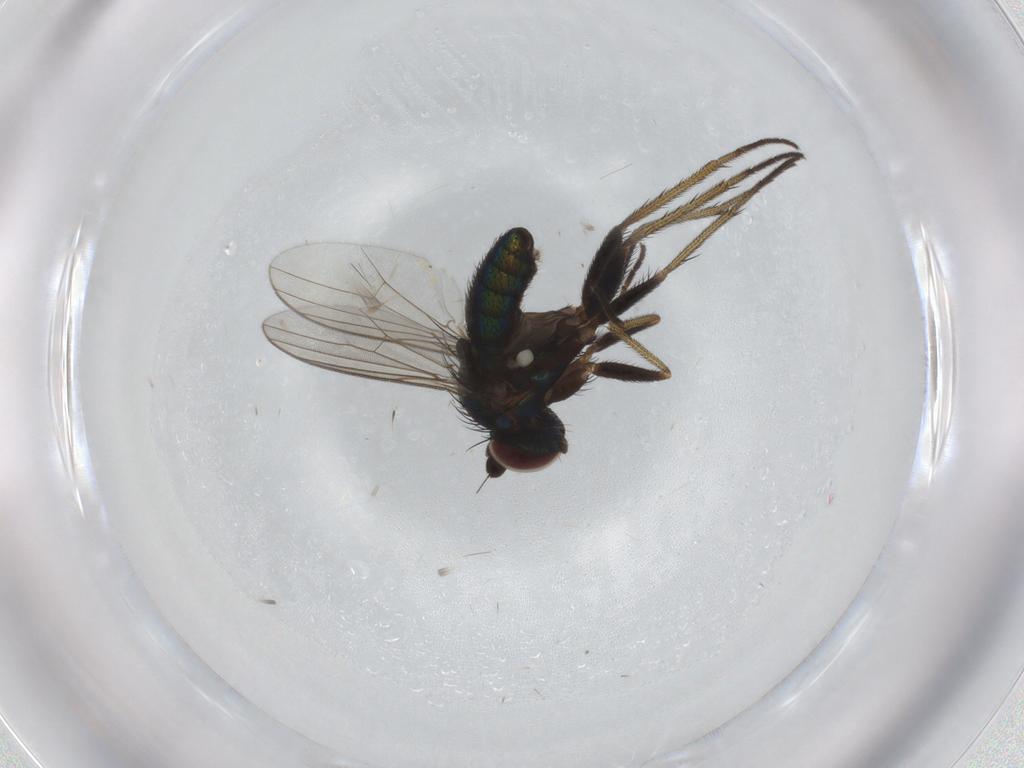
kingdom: Animalia
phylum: Arthropoda
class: Insecta
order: Diptera
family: Dolichopodidae
